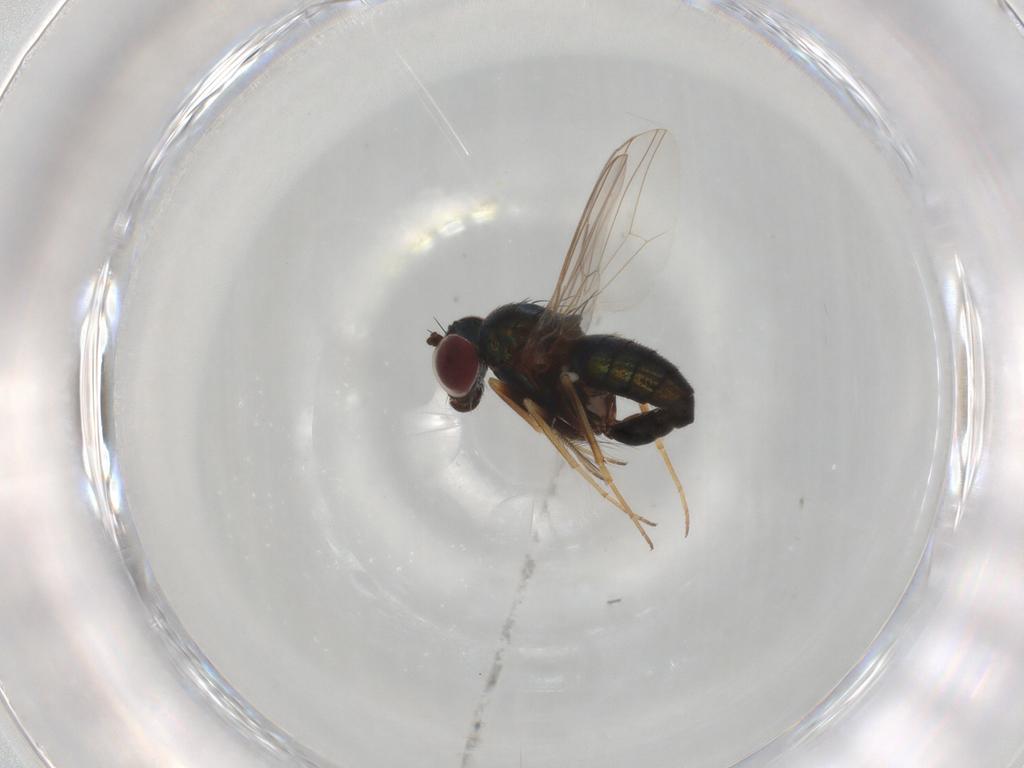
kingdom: Animalia
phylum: Arthropoda
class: Insecta
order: Diptera
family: Dolichopodidae
